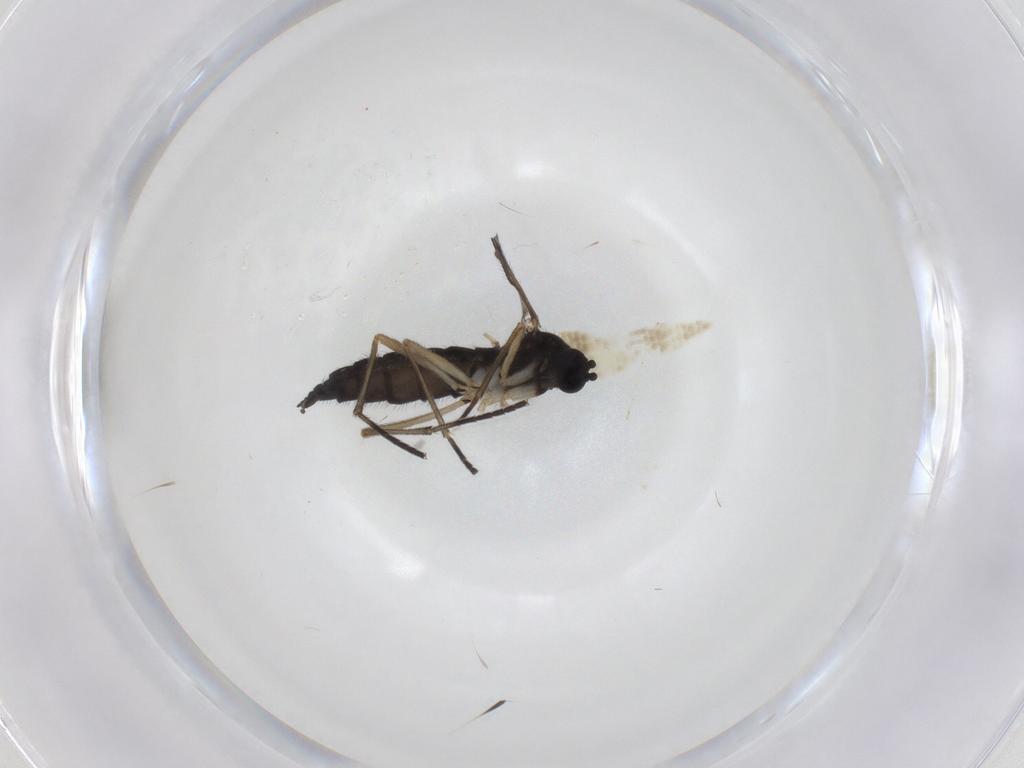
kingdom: Animalia
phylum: Arthropoda
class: Insecta
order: Diptera
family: Sciaridae
